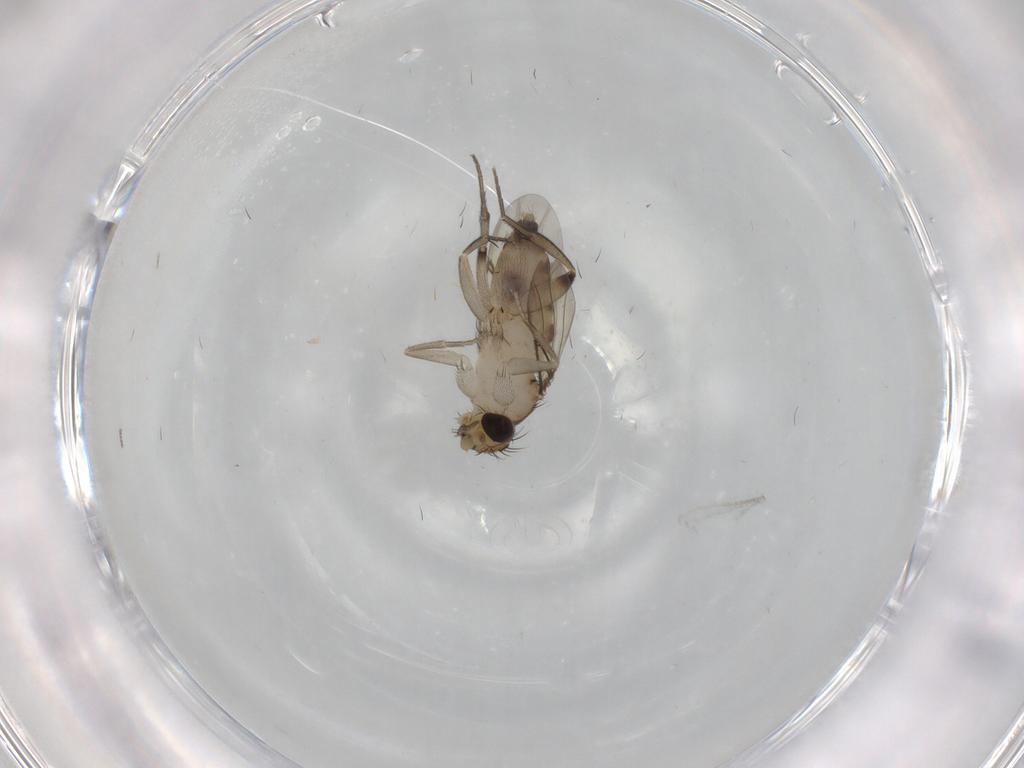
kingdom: Animalia
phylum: Arthropoda
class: Insecta
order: Diptera
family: Phoridae
